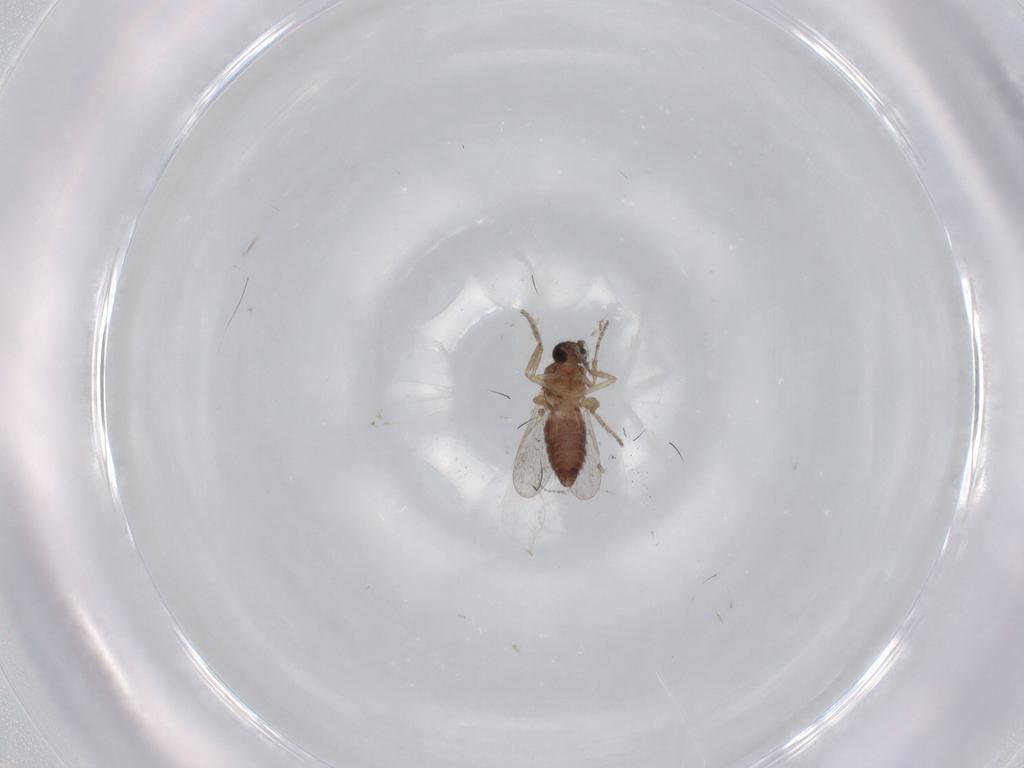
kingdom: Animalia
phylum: Arthropoda
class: Insecta
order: Diptera
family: Ceratopogonidae
